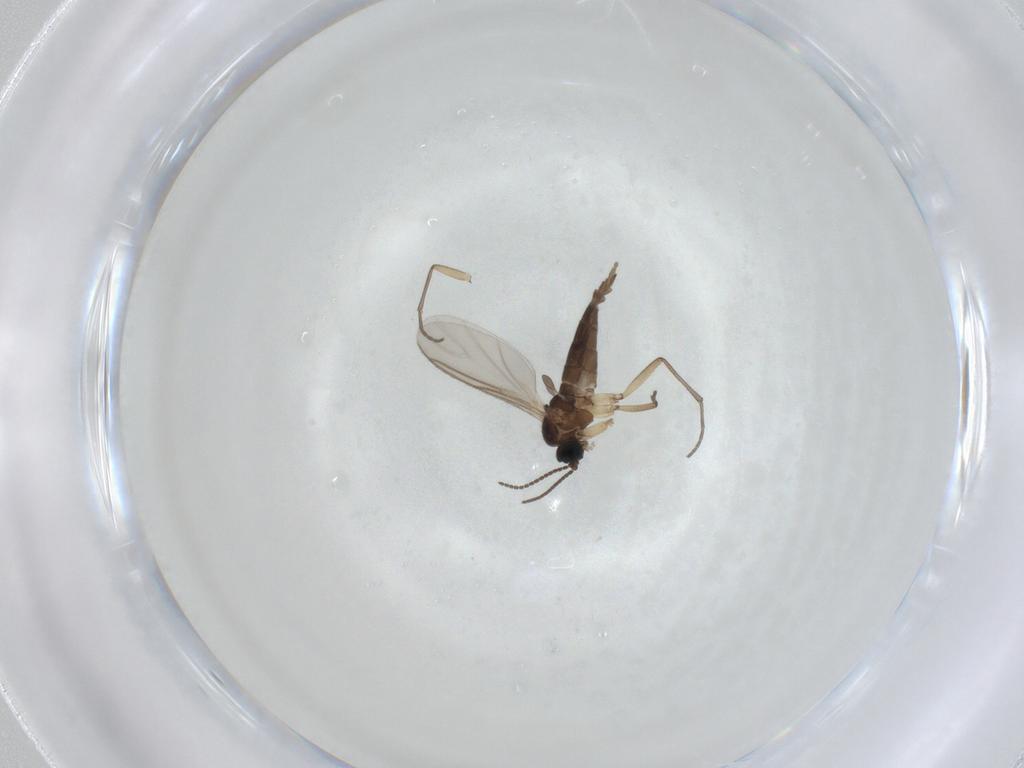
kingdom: Animalia
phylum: Arthropoda
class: Insecta
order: Diptera
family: Sciaridae
